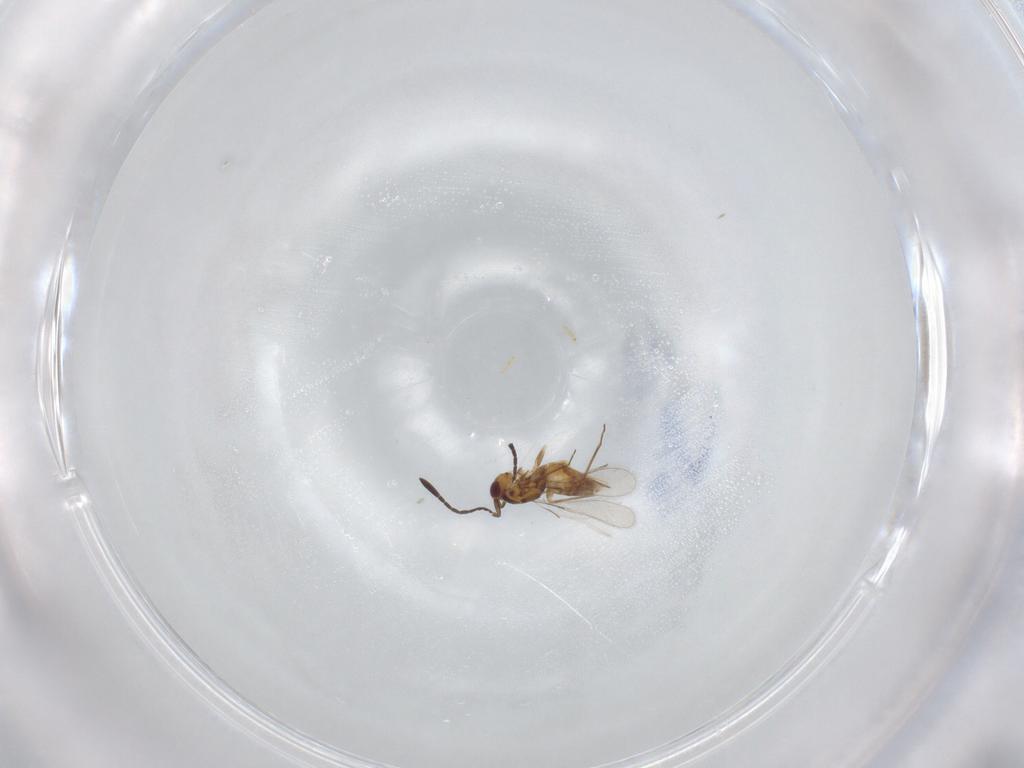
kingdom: Animalia
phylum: Arthropoda
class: Insecta
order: Hymenoptera
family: Mymaridae
